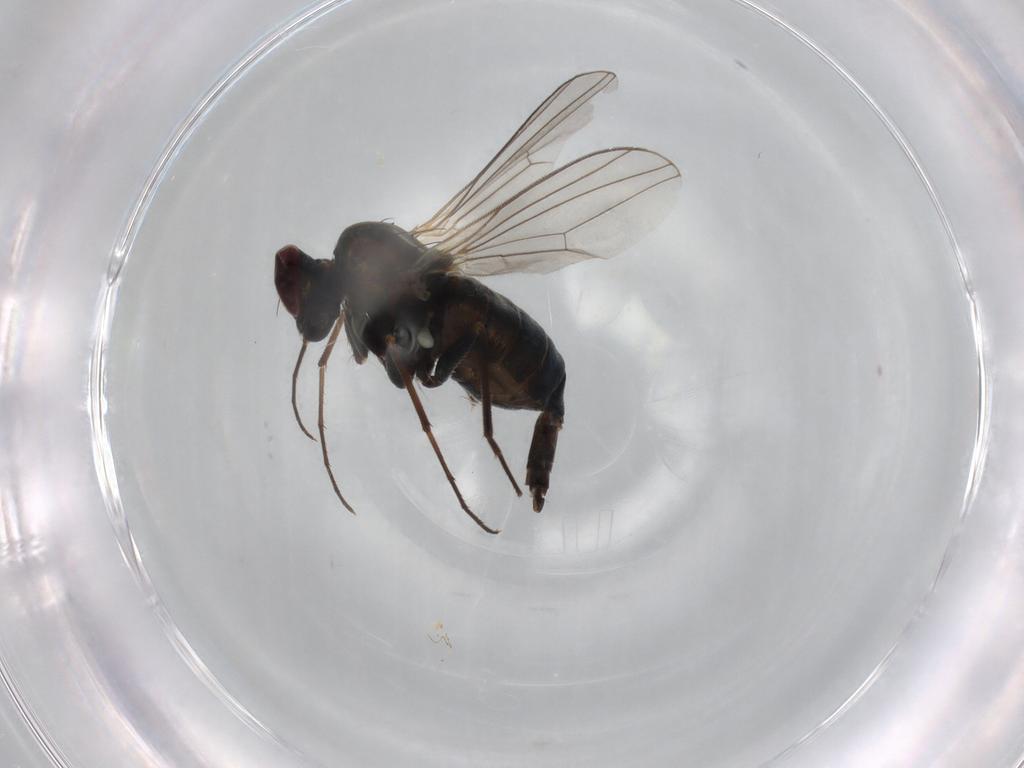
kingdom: Animalia
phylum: Arthropoda
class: Insecta
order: Diptera
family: Dolichopodidae
